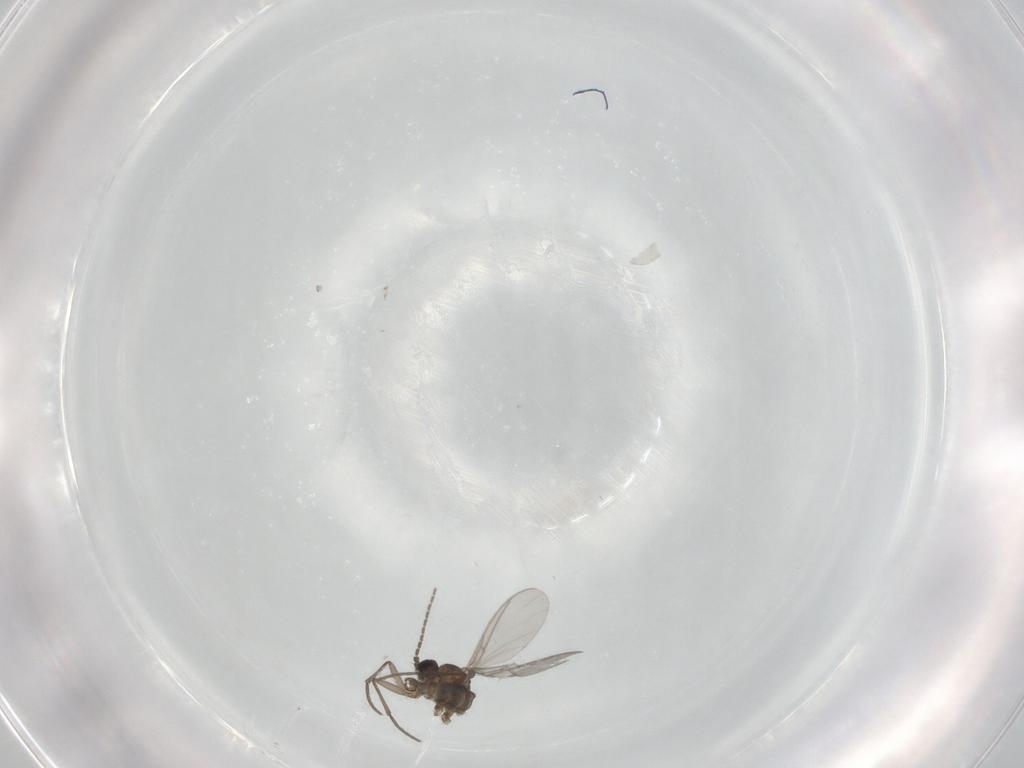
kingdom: Animalia
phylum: Arthropoda
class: Insecta
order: Diptera
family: Sciaridae
